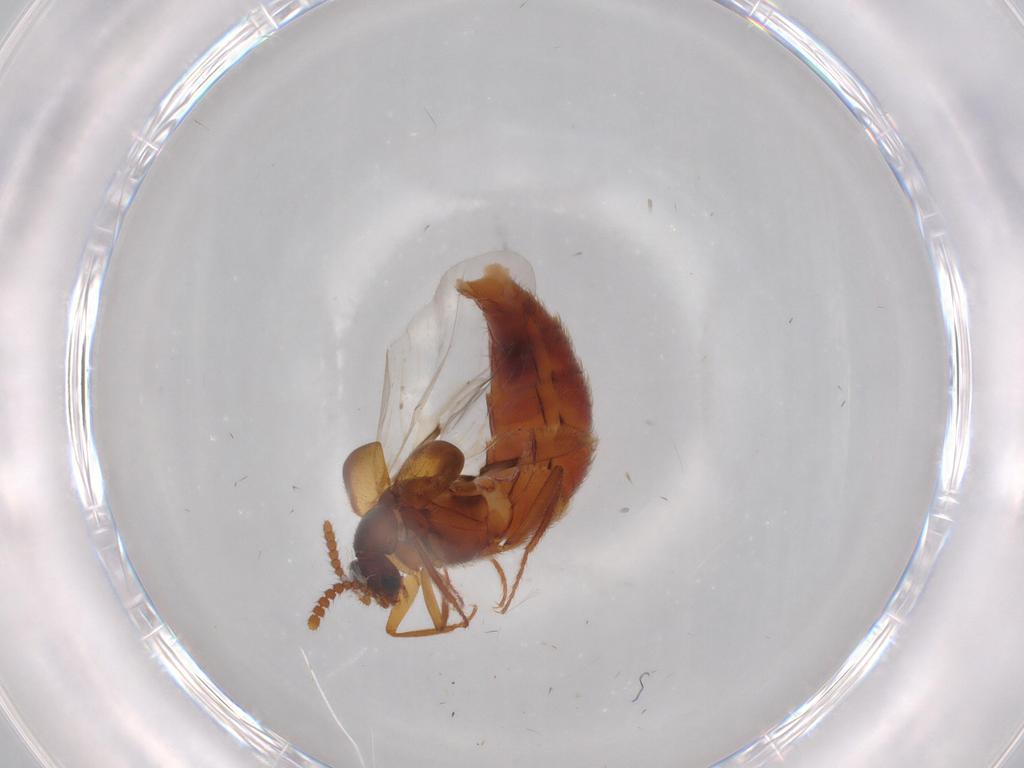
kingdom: Animalia
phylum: Arthropoda
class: Insecta
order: Coleoptera
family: Staphylinidae
